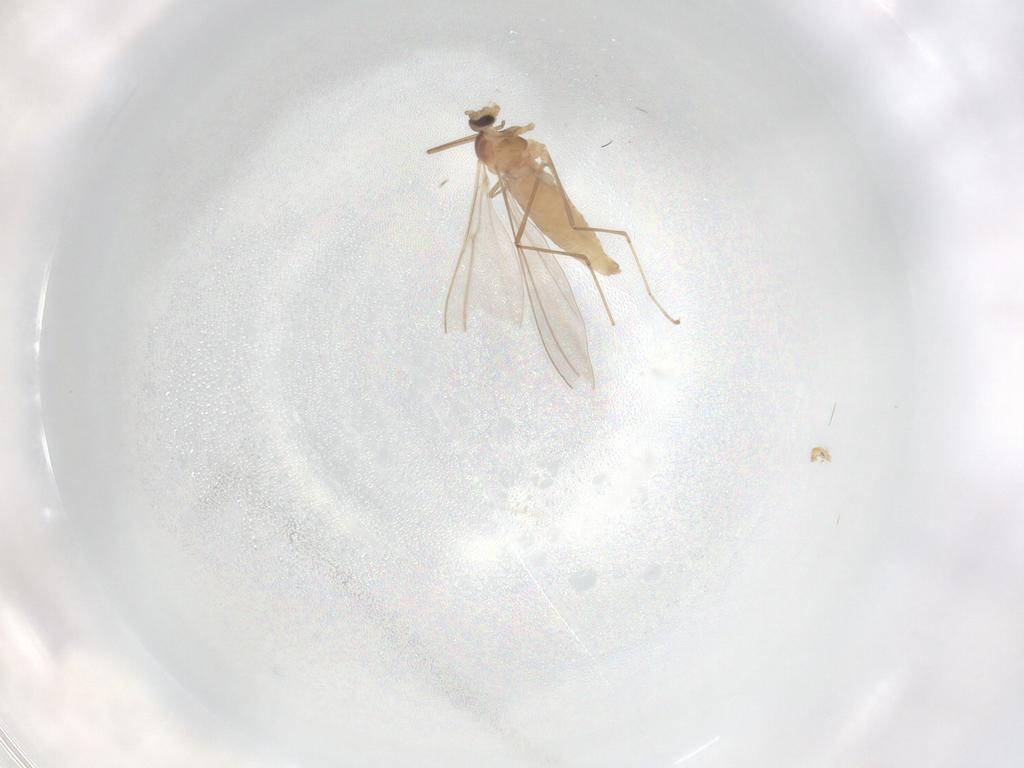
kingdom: Animalia
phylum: Arthropoda
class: Insecta
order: Diptera
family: Cecidomyiidae
